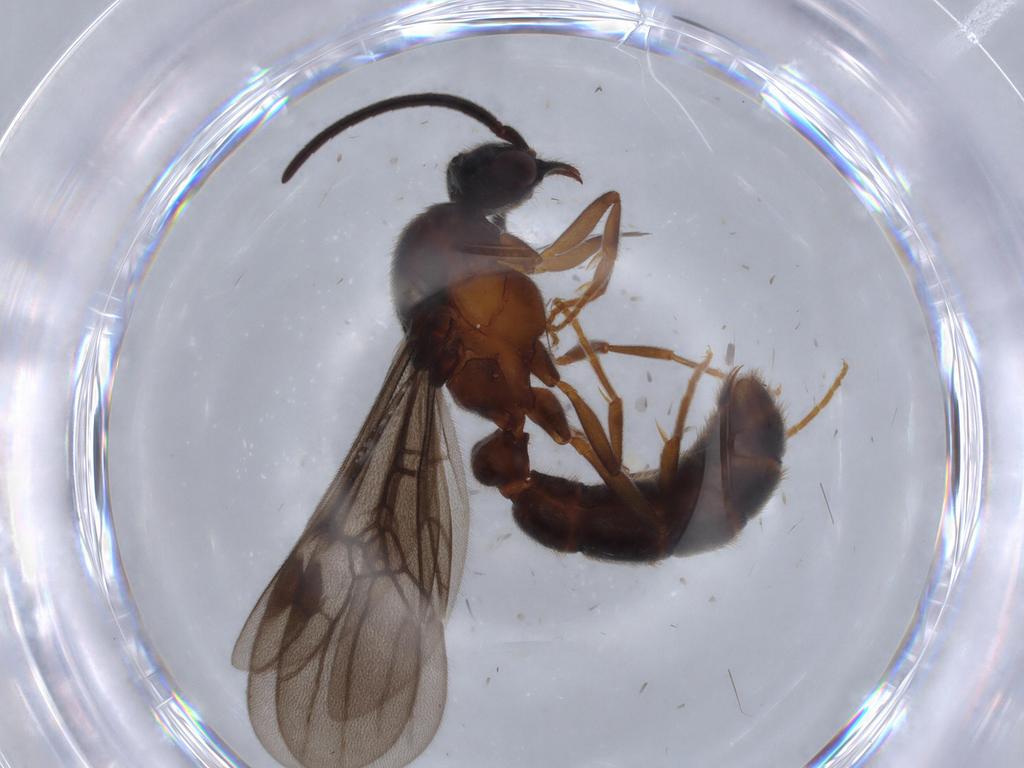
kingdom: Animalia
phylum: Arthropoda
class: Insecta
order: Hymenoptera
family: Formicidae
